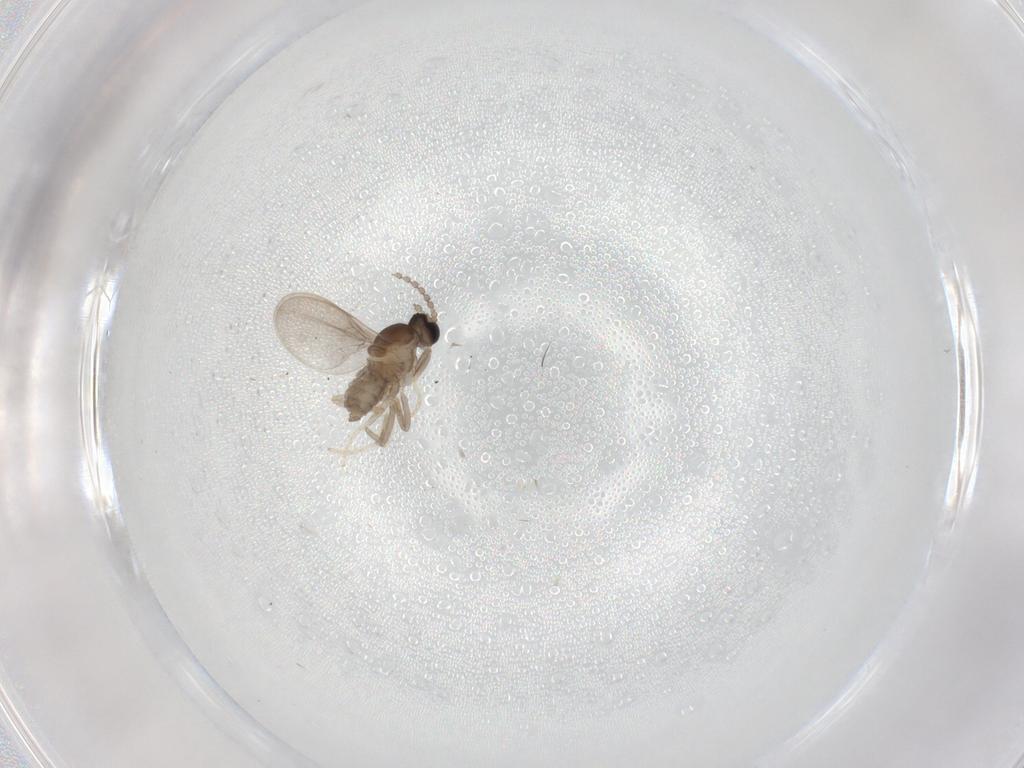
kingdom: Animalia
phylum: Arthropoda
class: Insecta
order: Diptera
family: Cecidomyiidae
